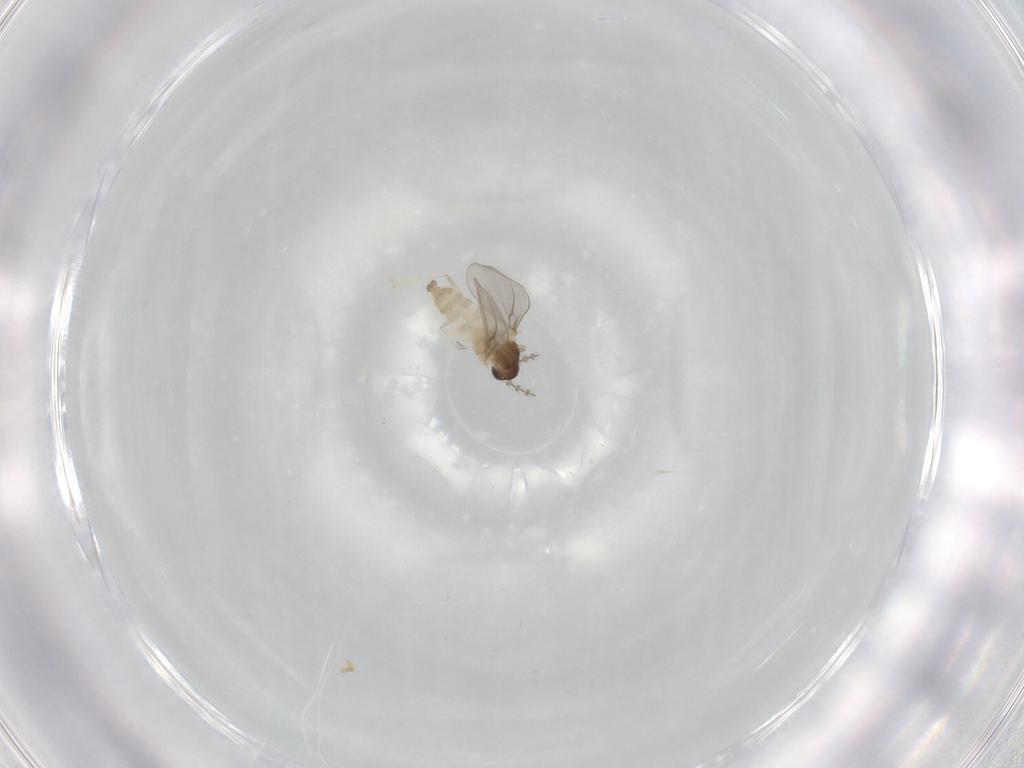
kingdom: Animalia
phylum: Arthropoda
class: Insecta
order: Diptera
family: Cecidomyiidae
